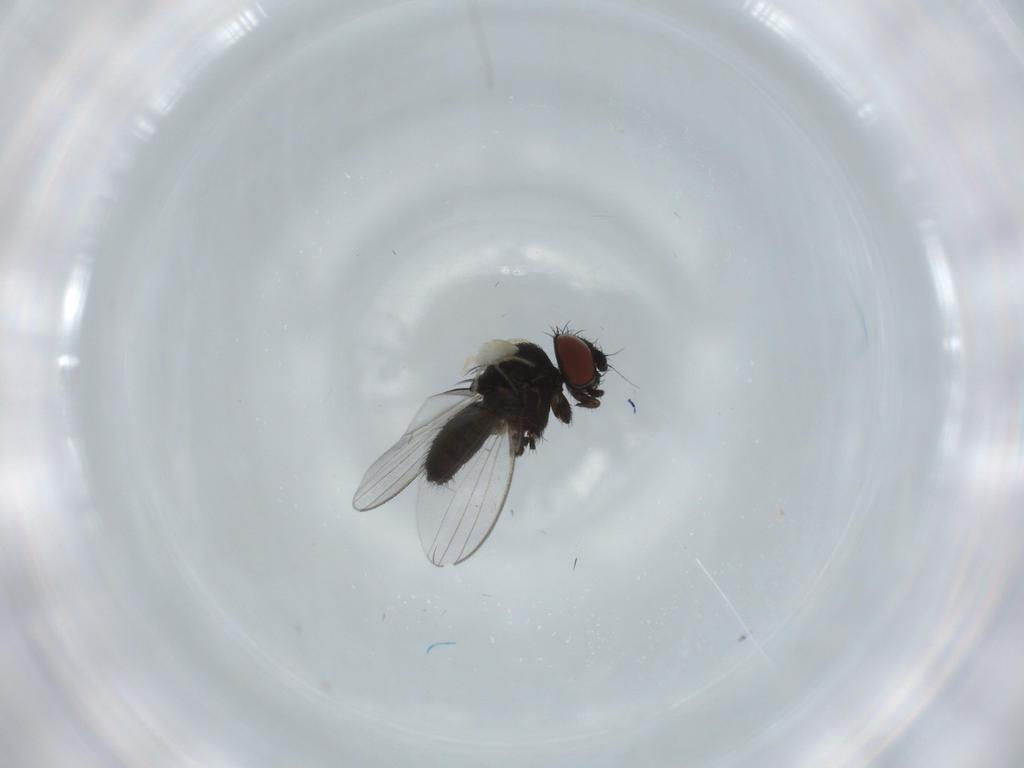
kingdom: Animalia
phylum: Arthropoda
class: Insecta
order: Diptera
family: Milichiidae
